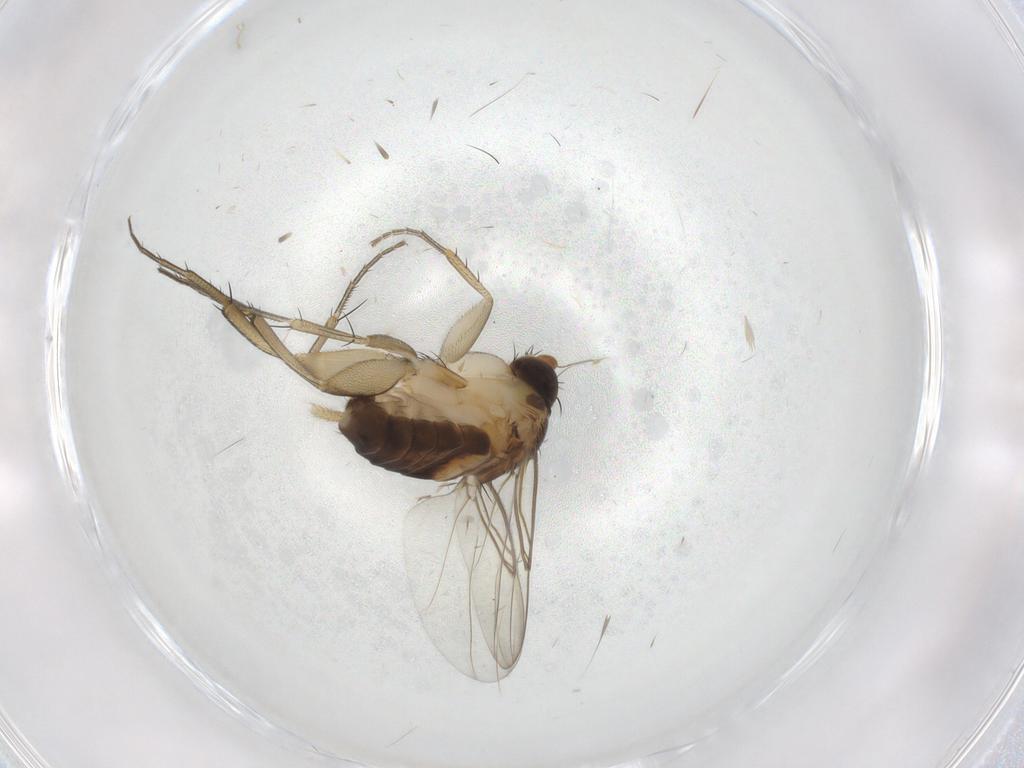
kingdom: Animalia
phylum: Arthropoda
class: Insecta
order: Diptera
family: Phoridae
